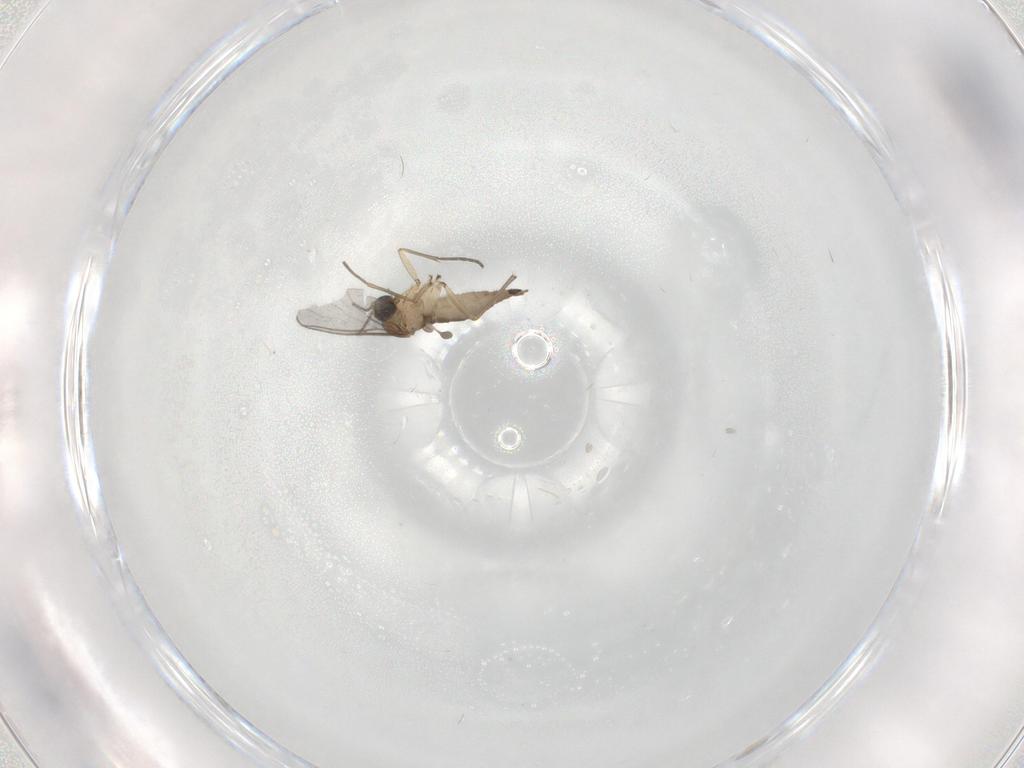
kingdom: Animalia
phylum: Arthropoda
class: Insecta
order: Diptera
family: Sciaridae
